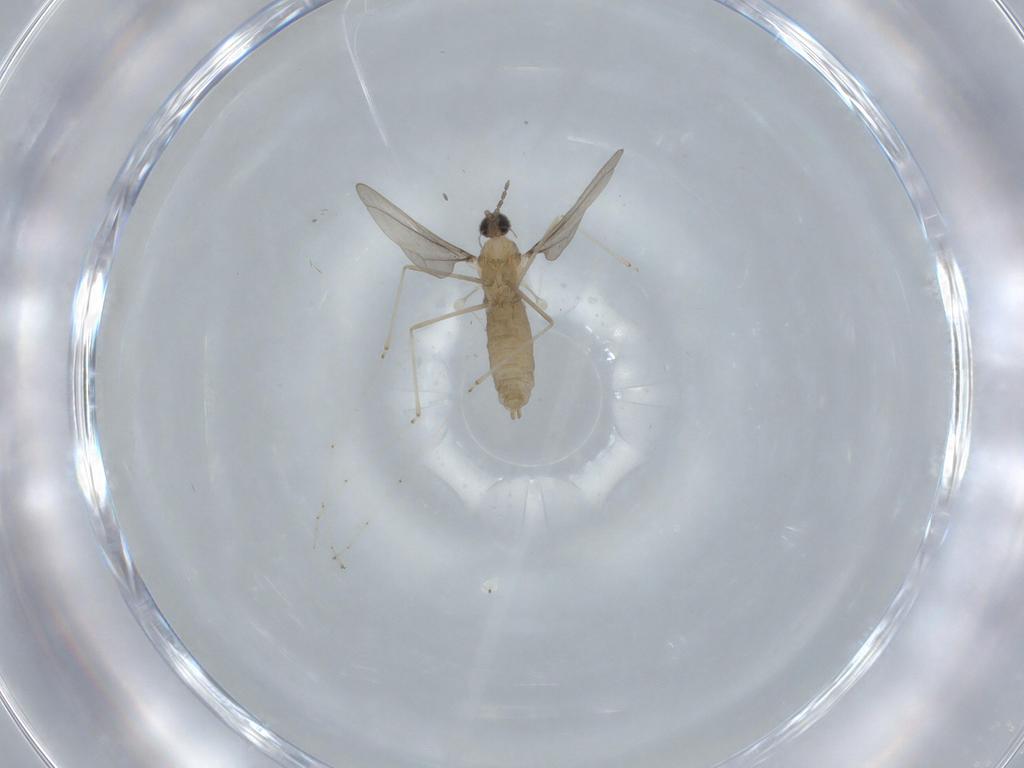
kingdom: Animalia
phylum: Arthropoda
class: Insecta
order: Diptera
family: Cecidomyiidae
